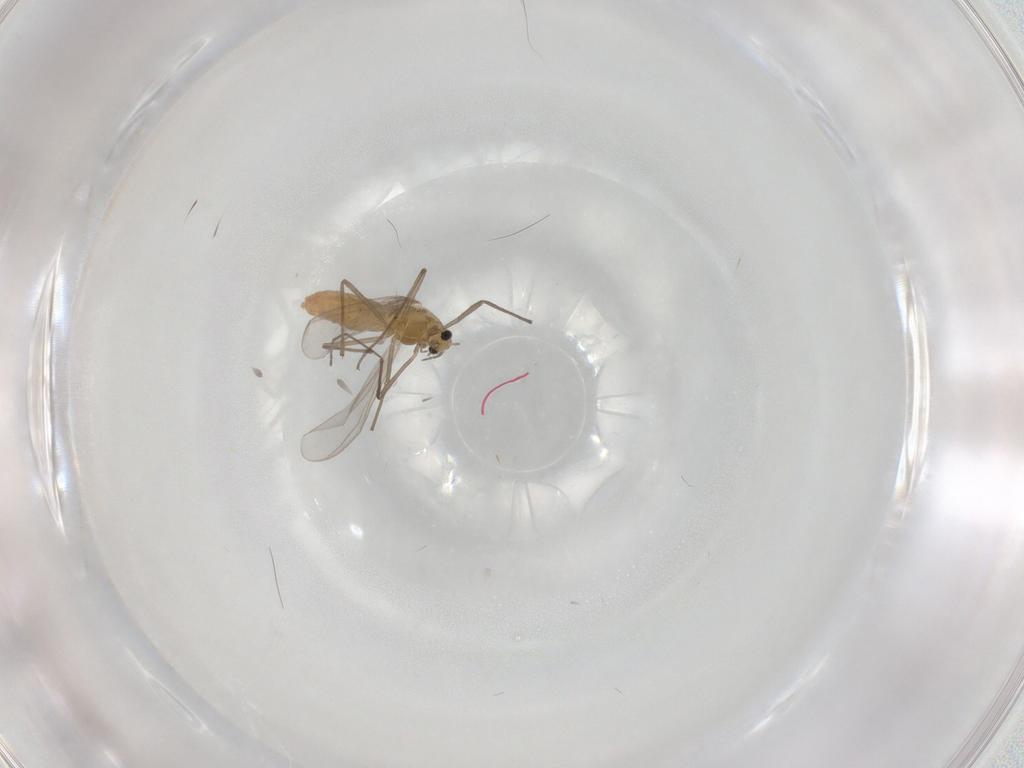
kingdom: Animalia
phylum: Arthropoda
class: Insecta
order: Diptera
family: Chironomidae
